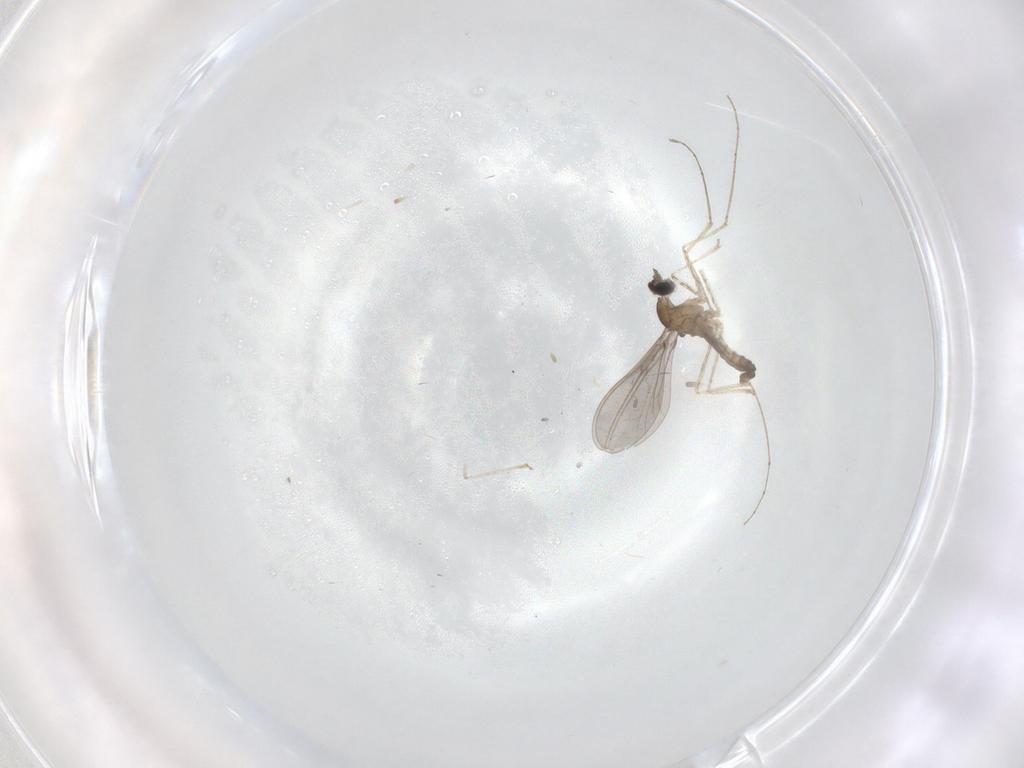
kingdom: Animalia
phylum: Arthropoda
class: Insecta
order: Diptera
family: Cecidomyiidae
